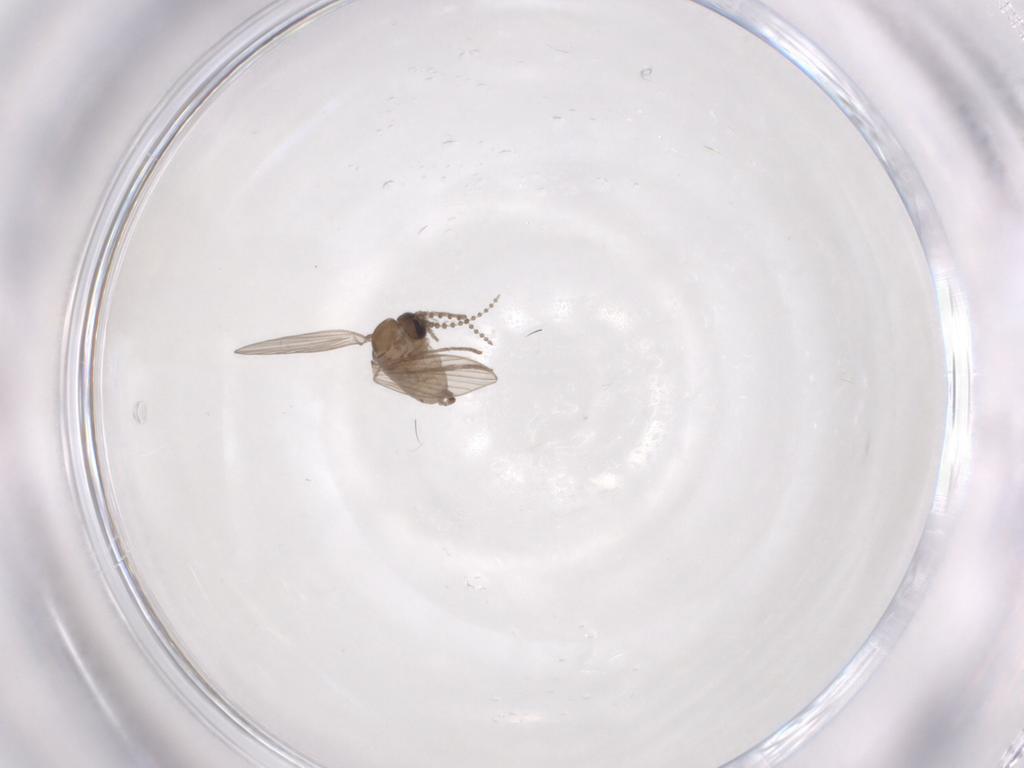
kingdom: Animalia
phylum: Arthropoda
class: Insecta
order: Diptera
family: Psychodidae
